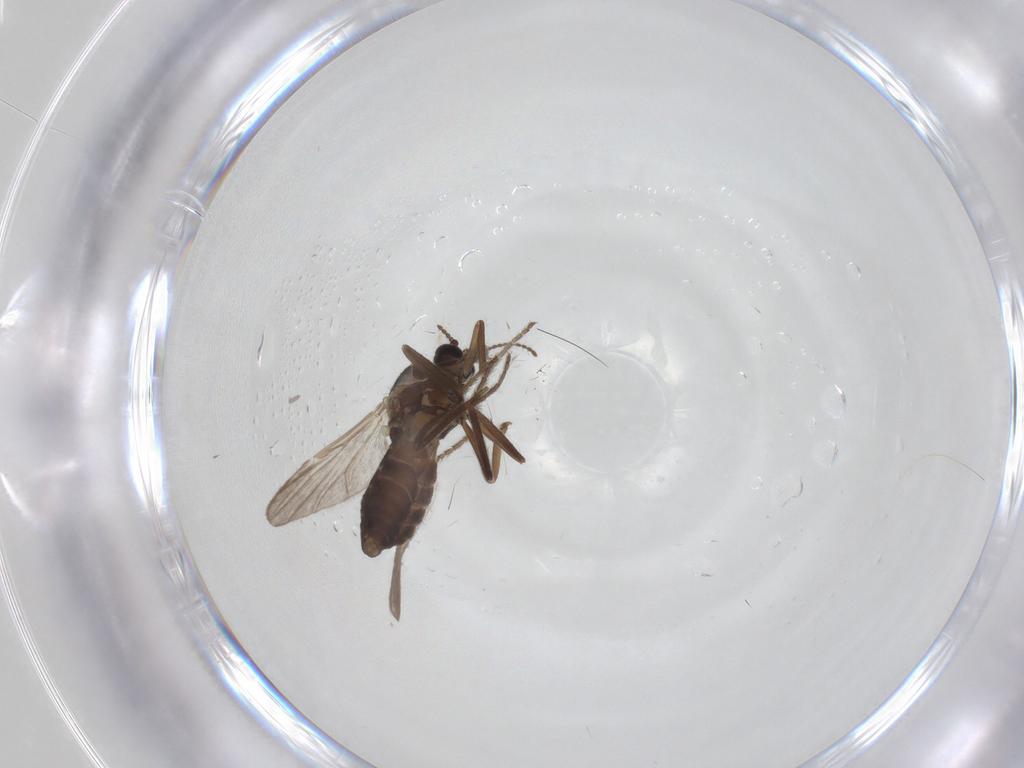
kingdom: Animalia
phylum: Arthropoda
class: Insecta
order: Diptera
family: Ceratopogonidae
